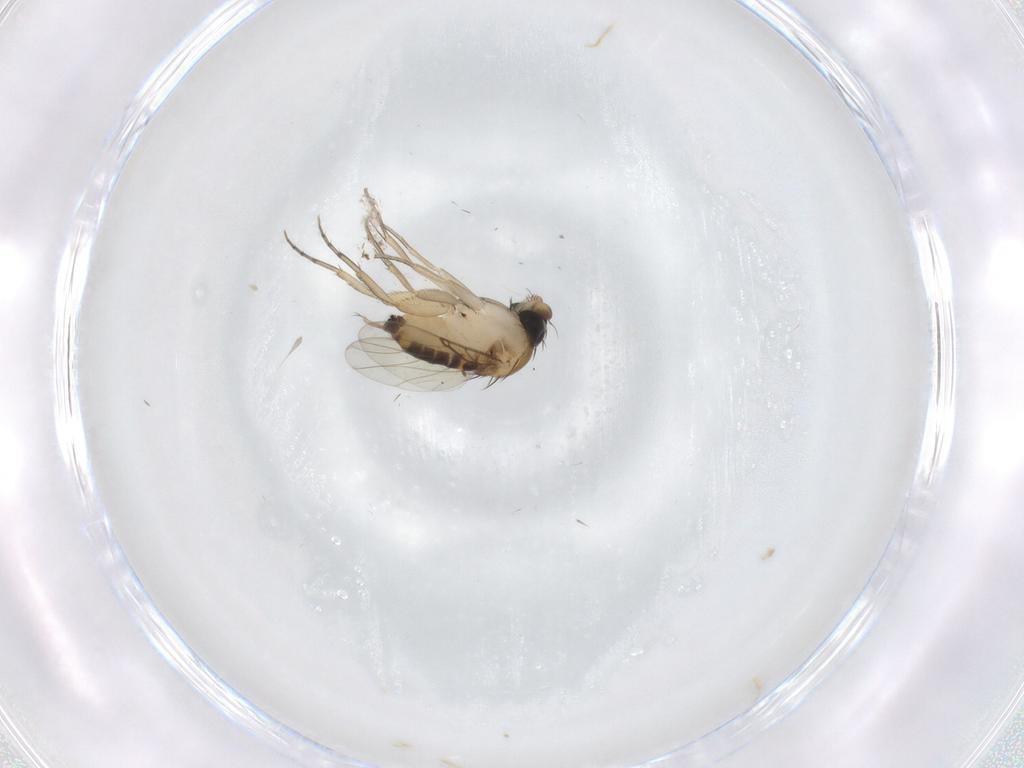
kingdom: Animalia
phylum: Arthropoda
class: Insecta
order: Diptera
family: Phoridae
